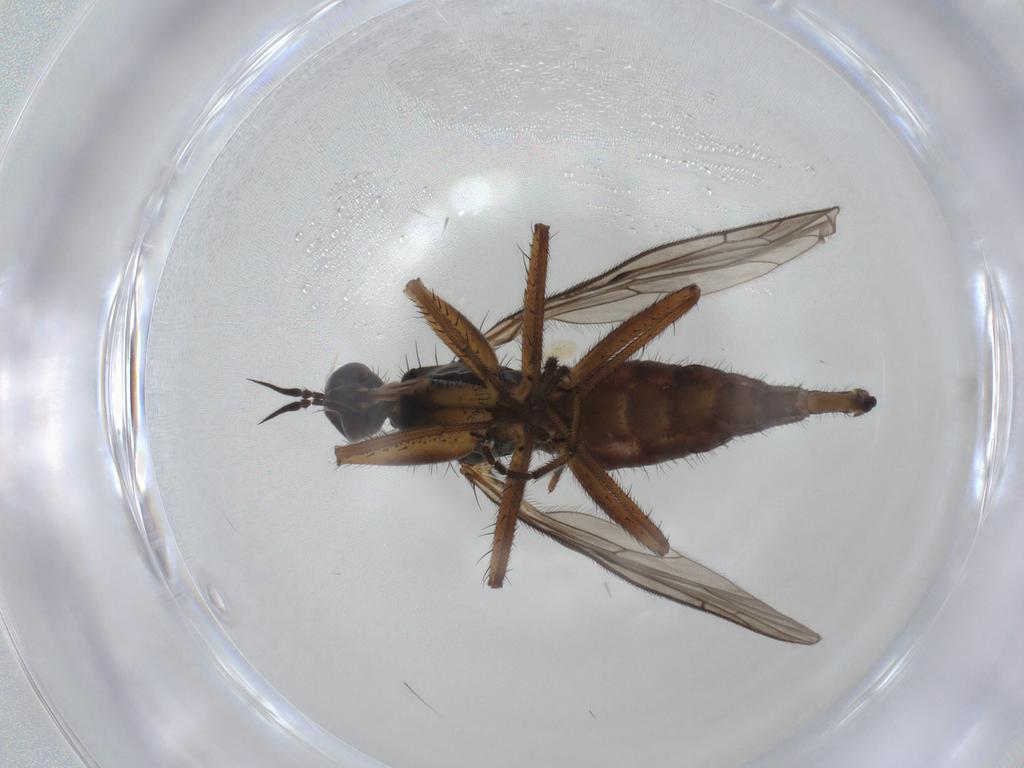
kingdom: Animalia
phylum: Arthropoda
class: Insecta
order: Diptera
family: Empididae
